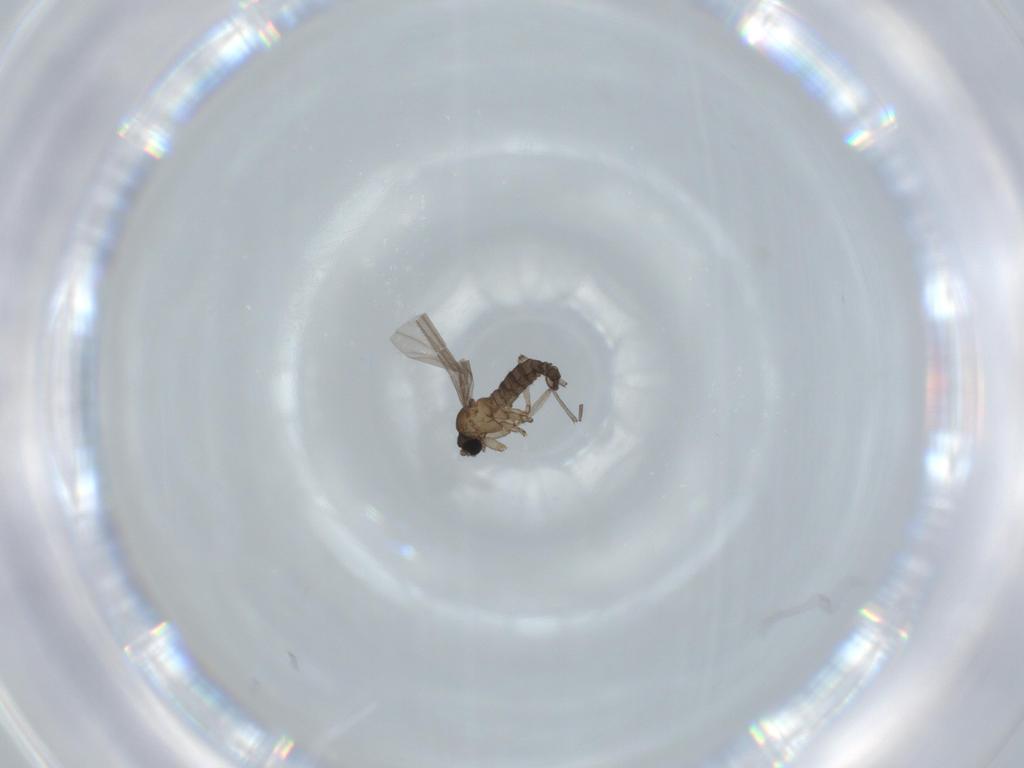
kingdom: Animalia
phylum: Arthropoda
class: Insecta
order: Diptera
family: Sciaridae
